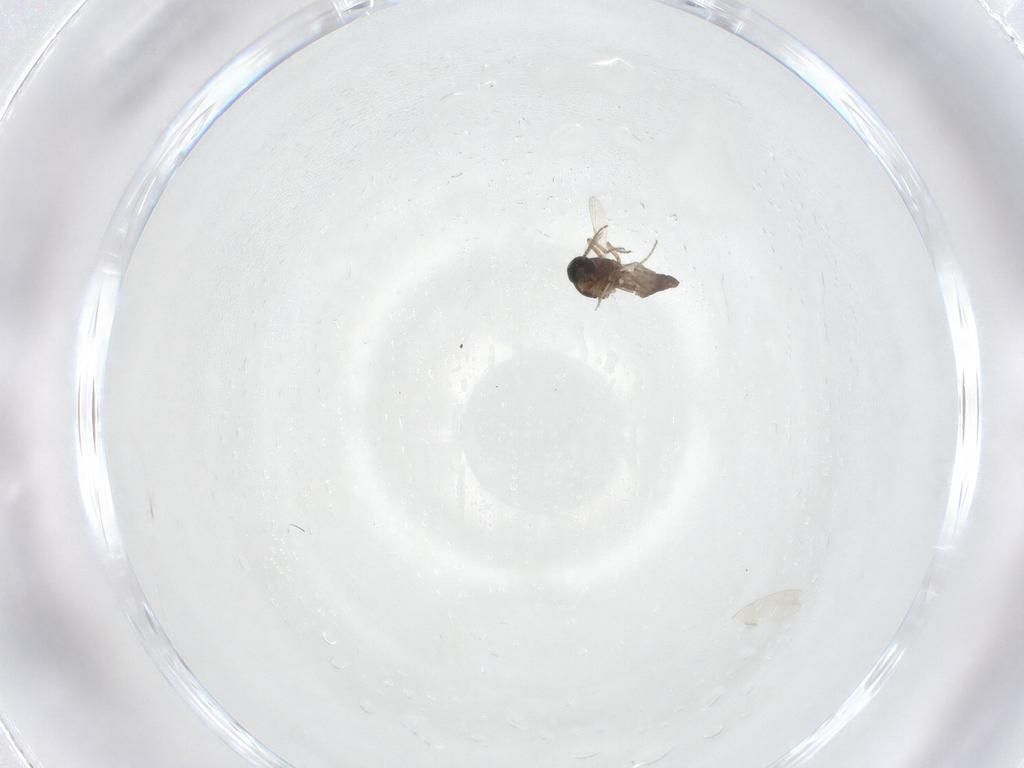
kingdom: Animalia
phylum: Arthropoda
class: Insecta
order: Diptera
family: Ceratopogonidae
